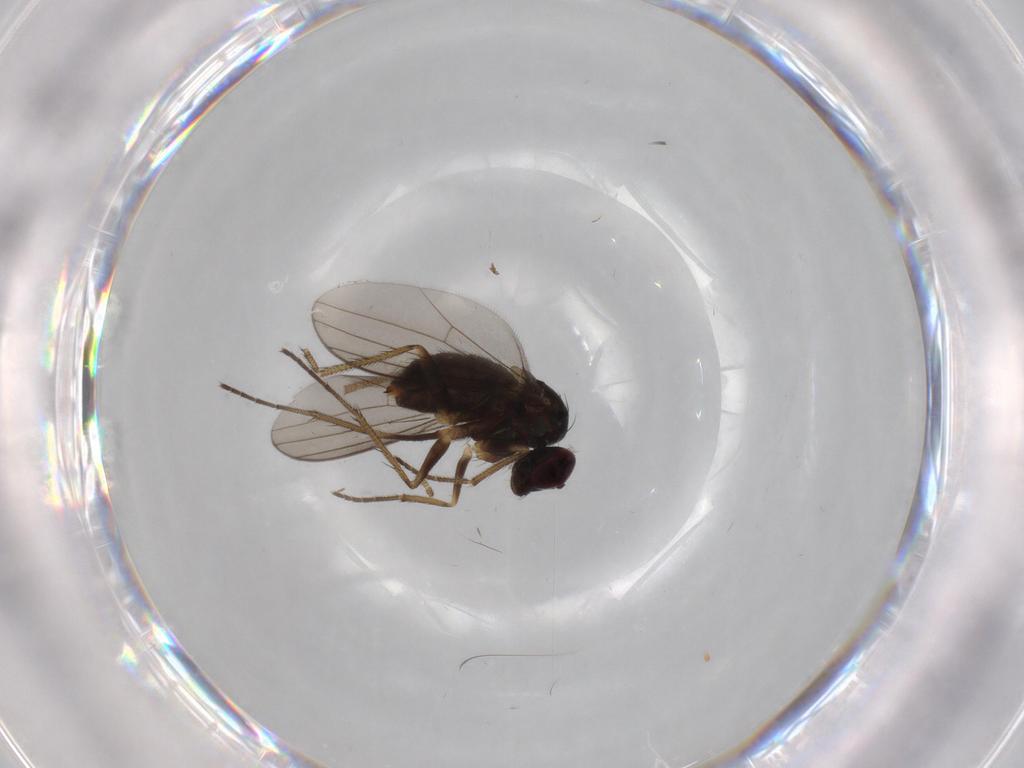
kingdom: Animalia
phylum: Arthropoda
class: Insecta
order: Diptera
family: Dolichopodidae
